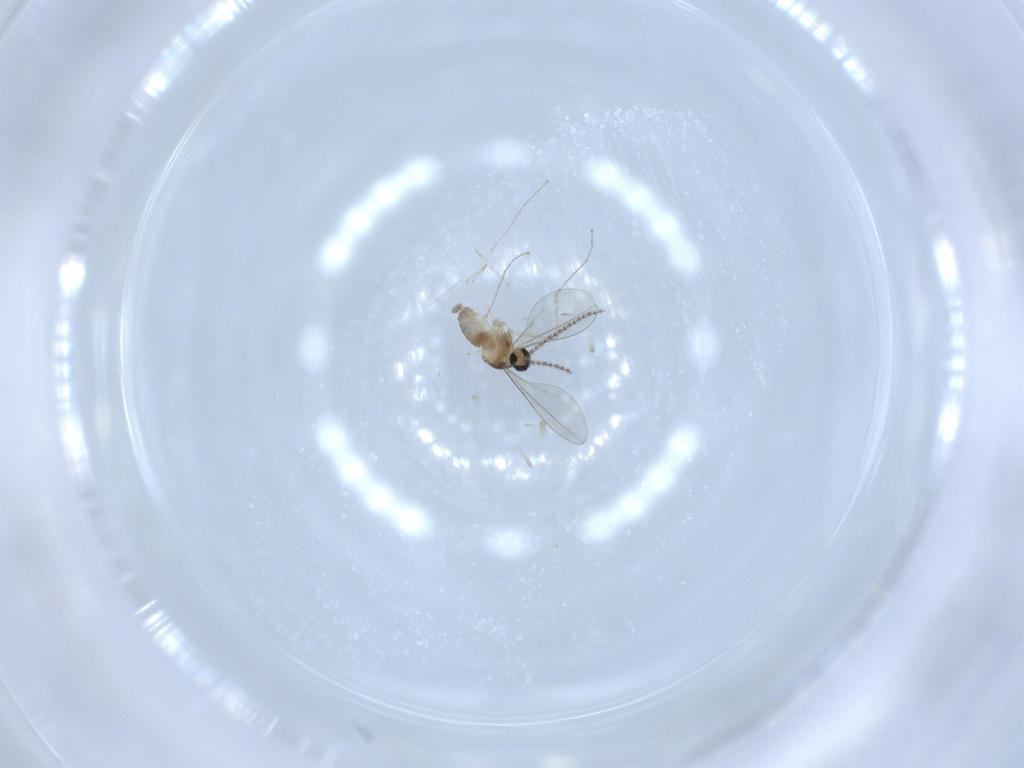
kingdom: Animalia
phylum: Arthropoda
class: Insecta
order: Diptera
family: Cecidomyiidae
